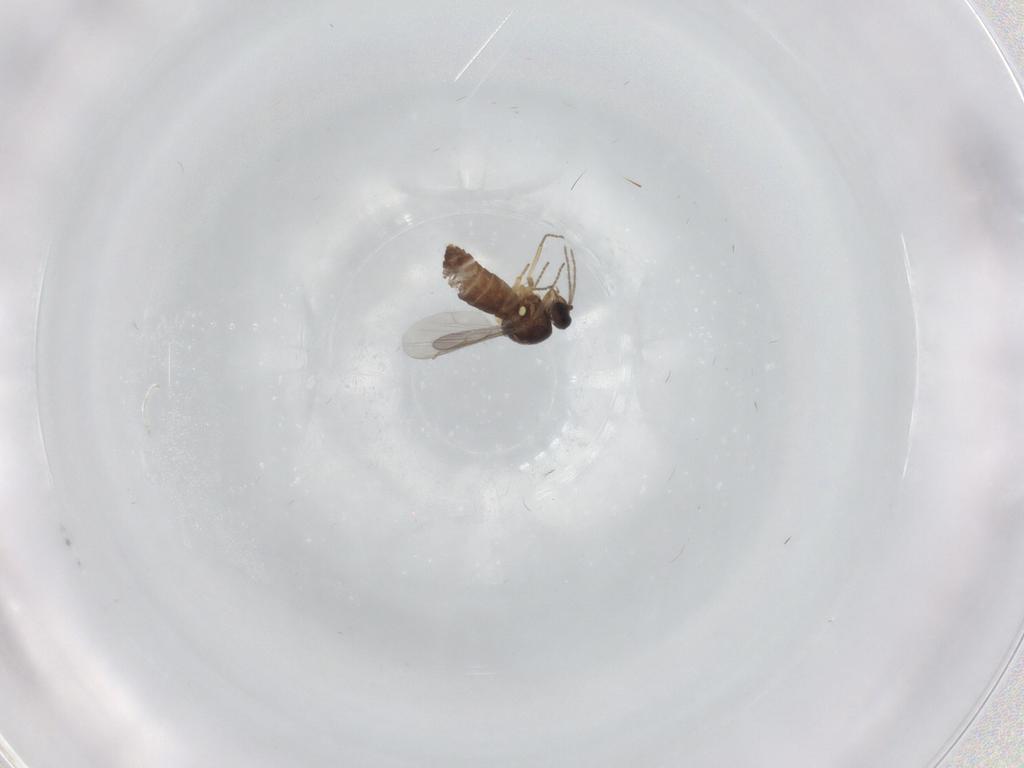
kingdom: Animalia
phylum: Arthropoda
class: Insecta
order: Diptera
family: Ceratopogonidae
